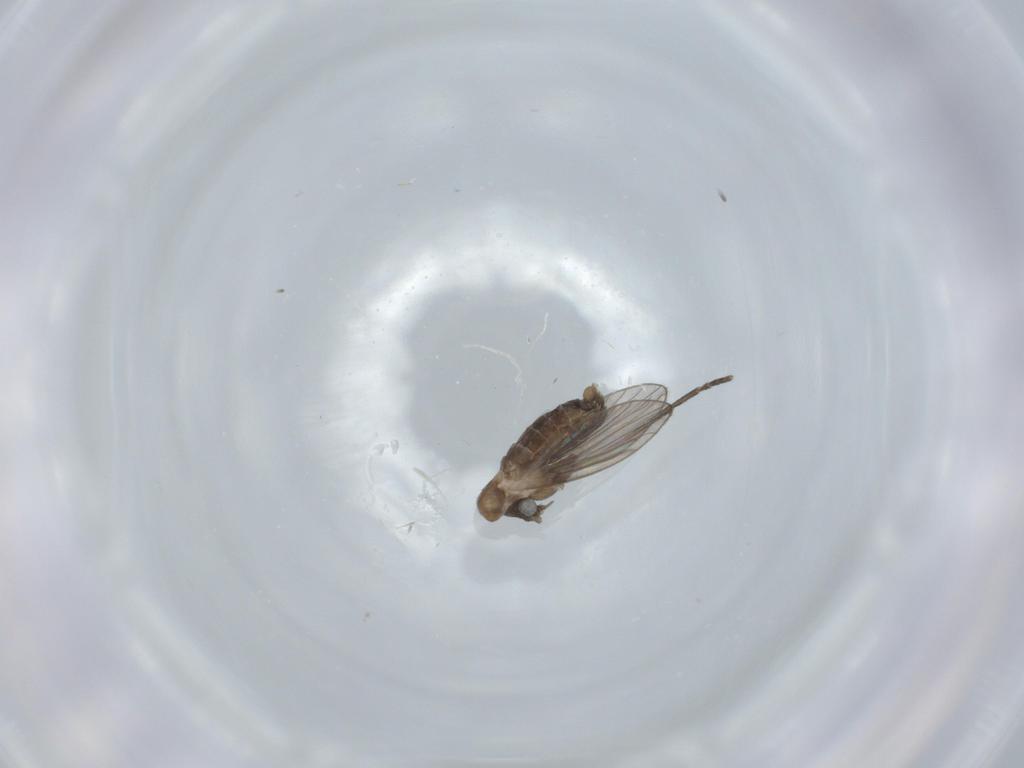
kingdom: Animalia
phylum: Arthropoda
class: Insecta
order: Diptera
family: Psychodidae
